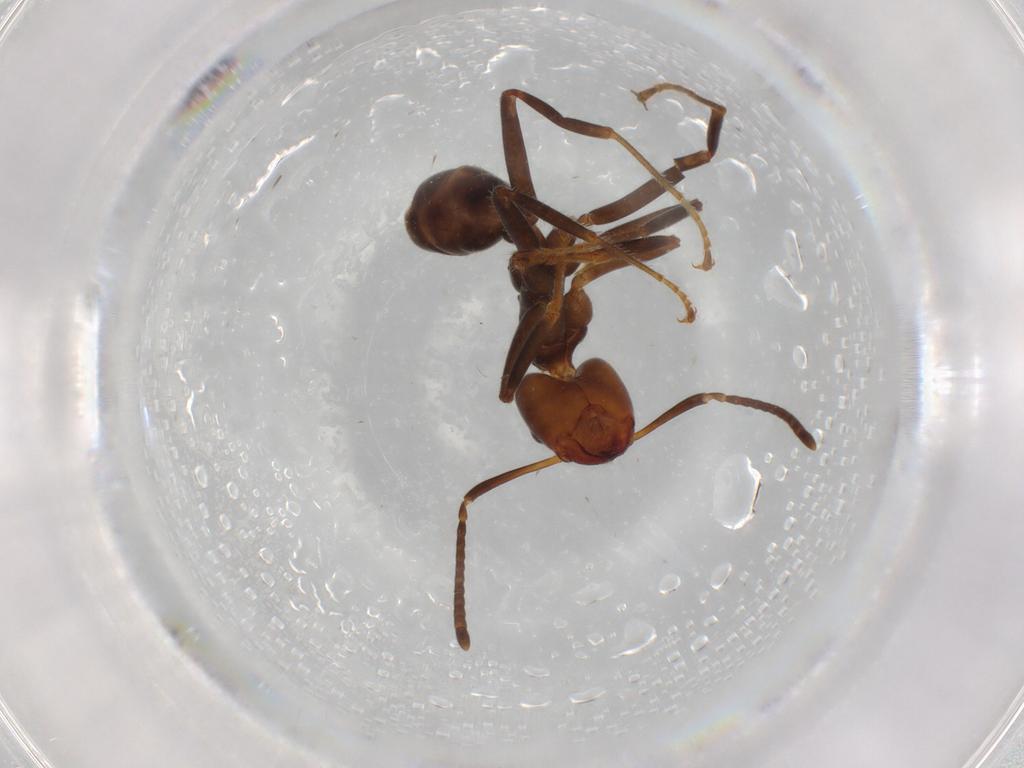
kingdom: Animalia
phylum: Arthropoda
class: Insecta
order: Hymenoptera
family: Formicidae
